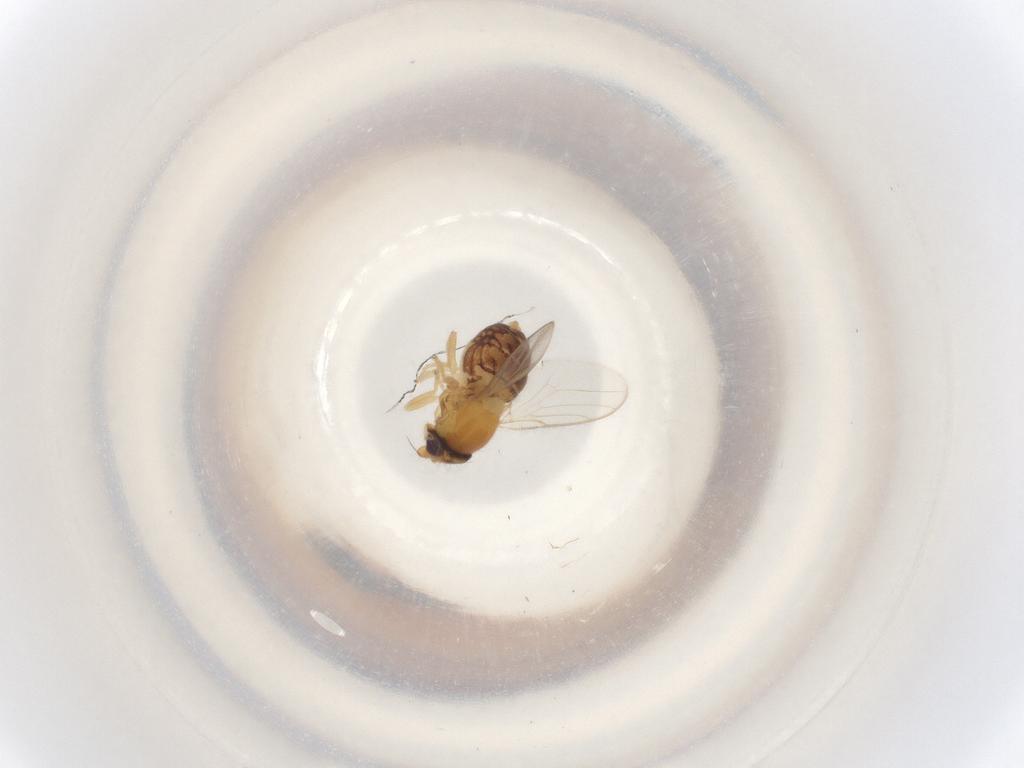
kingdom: Animalia
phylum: Arthropoda
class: Insecta
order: Diptera
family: Chloropidae
